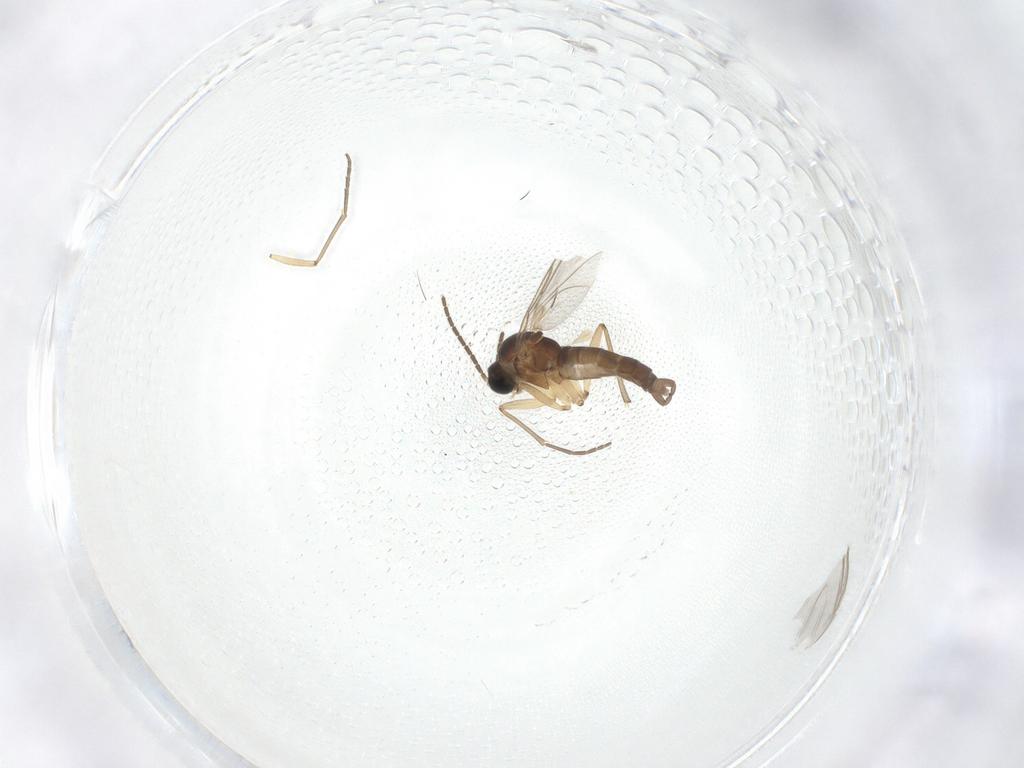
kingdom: Animalia
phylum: Arthropoda
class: Insecta
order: Diptera
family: Sciaridae
